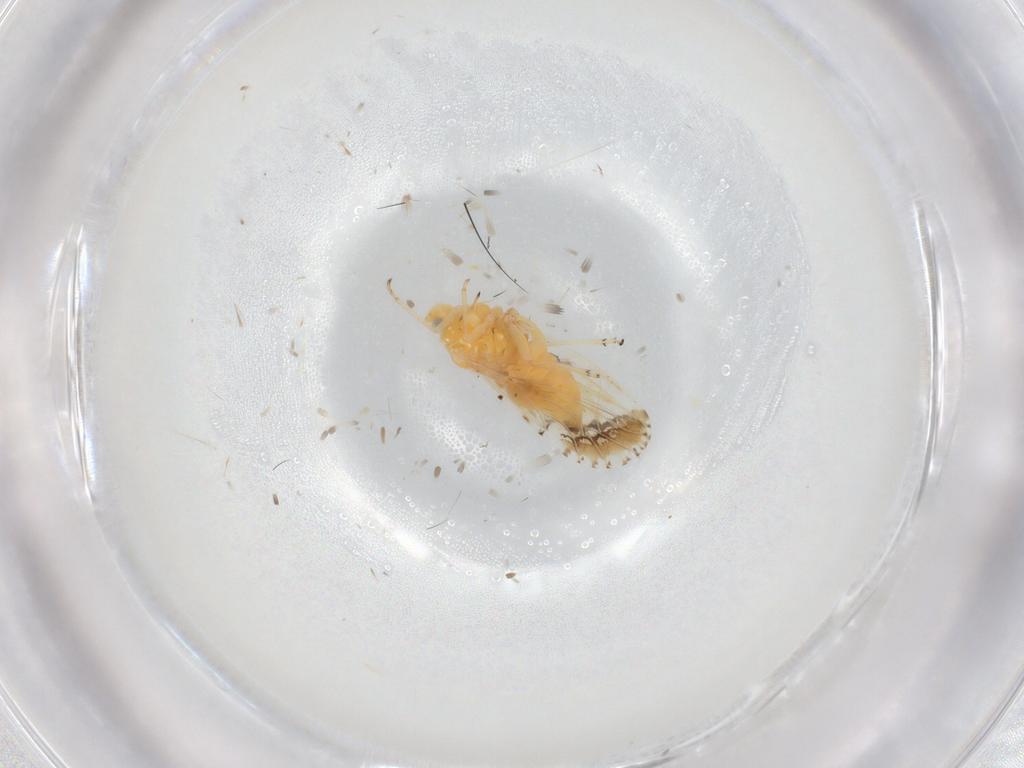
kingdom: Animalia
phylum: Arthropoda
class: Insecta
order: Hemiptera
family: Psyllidae
